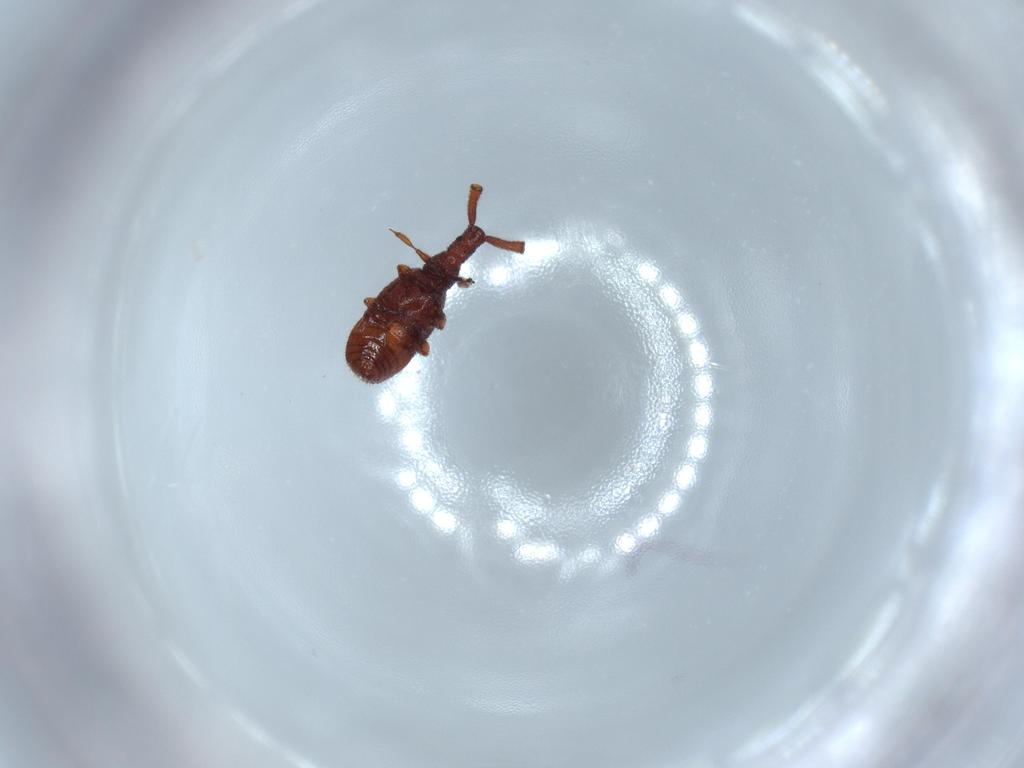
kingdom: Animalia
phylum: Arthropoda
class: Insecta
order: Coleoptera
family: Staphylinidae
